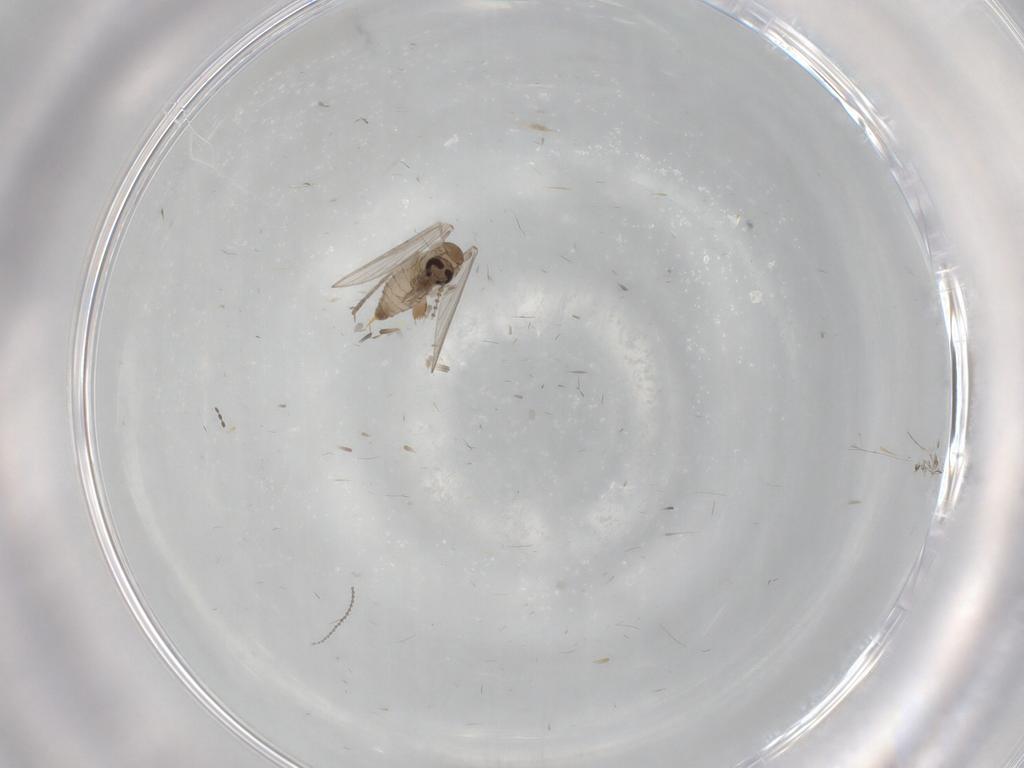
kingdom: Animalia
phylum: Arthropoda
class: Insecta
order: Diptera
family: Psychodidae
